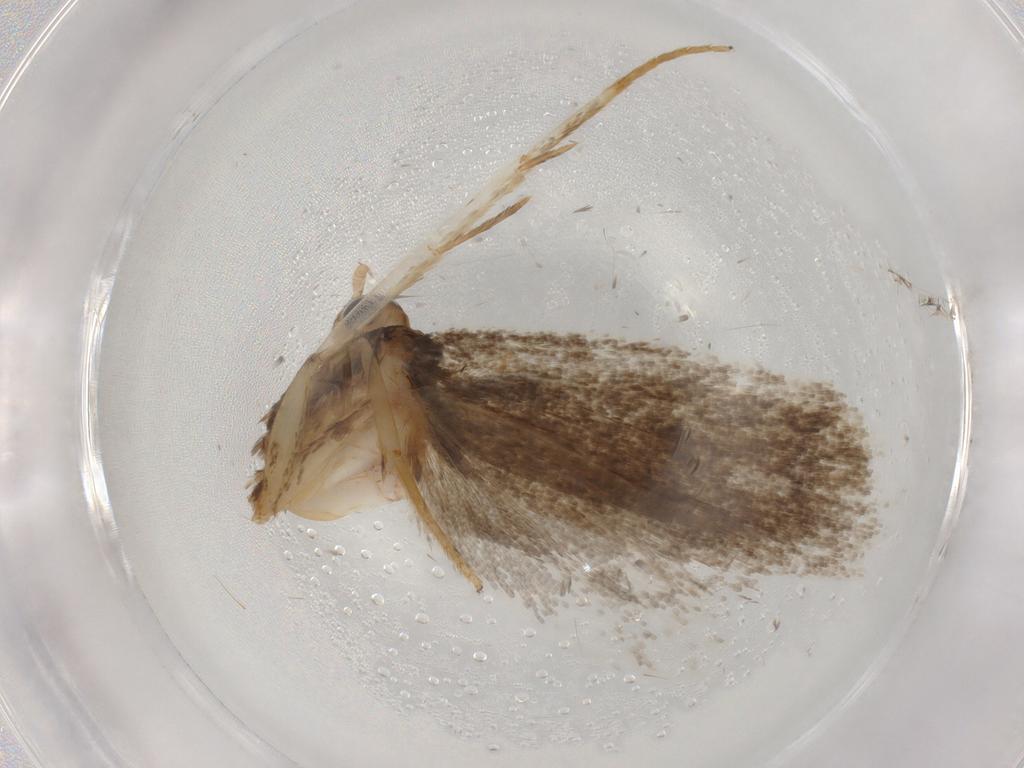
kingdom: Animalia
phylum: Arthropoda
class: Insecta
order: Lepidoptera
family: Lecithoceridae
